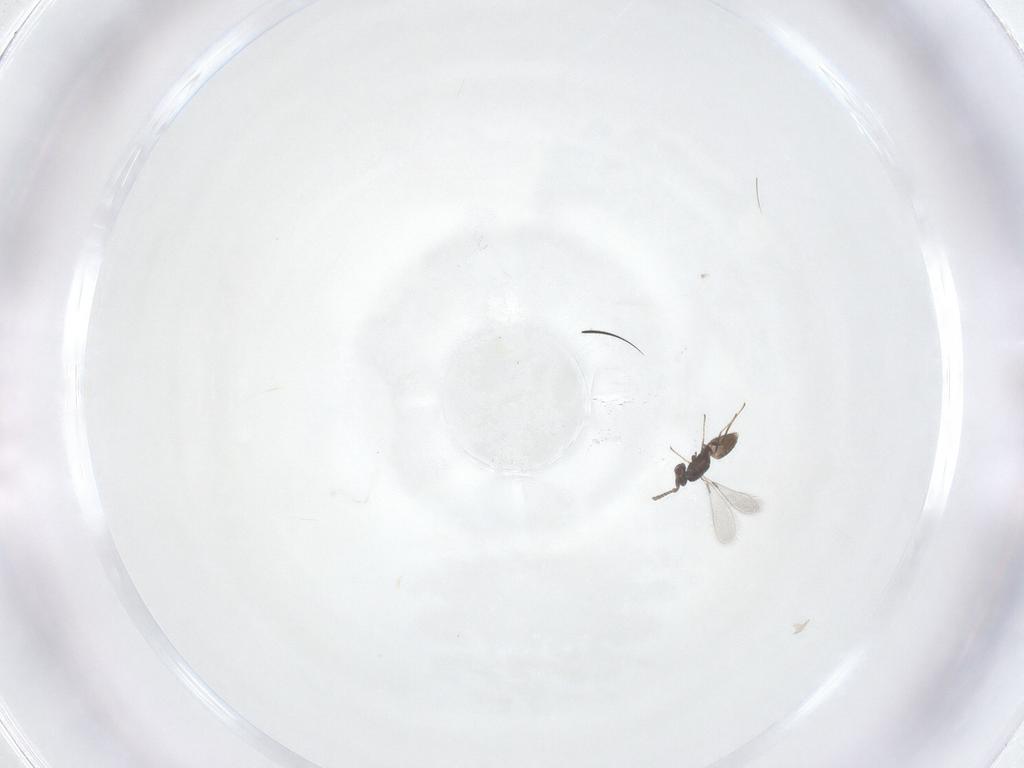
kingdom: Animalia
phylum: Arthropoda
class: Insecta
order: Hymenoptera
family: Mymaridae
